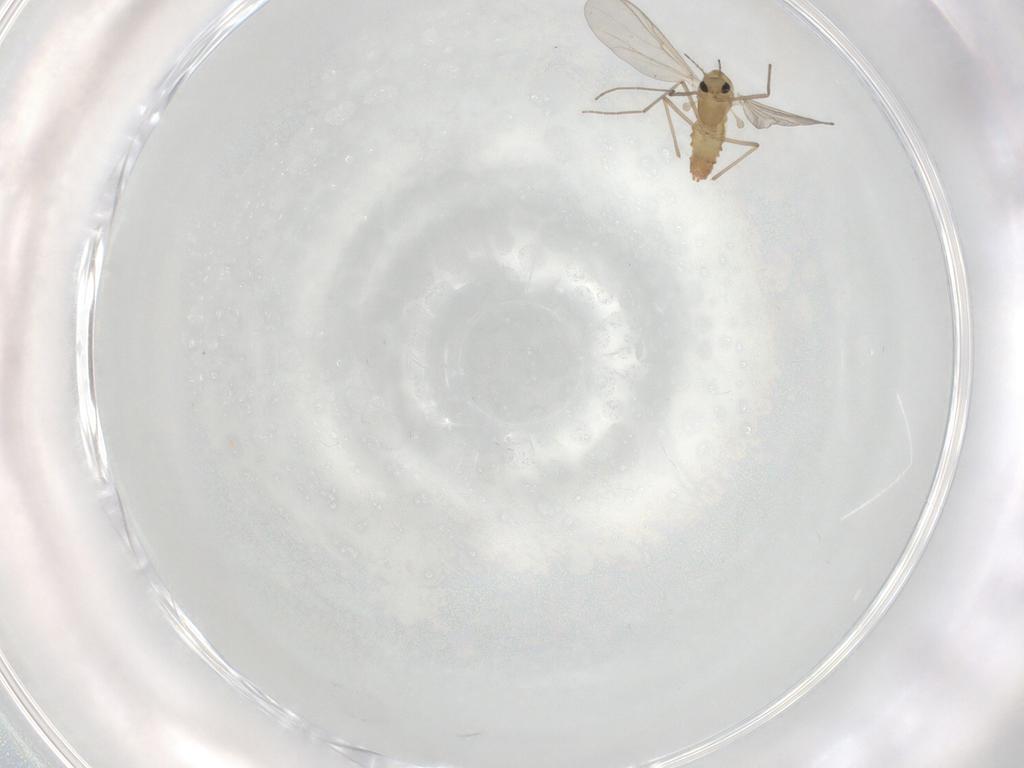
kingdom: Animalia
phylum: Arthropoda
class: Insecta
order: Diptera
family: Chironomidae
